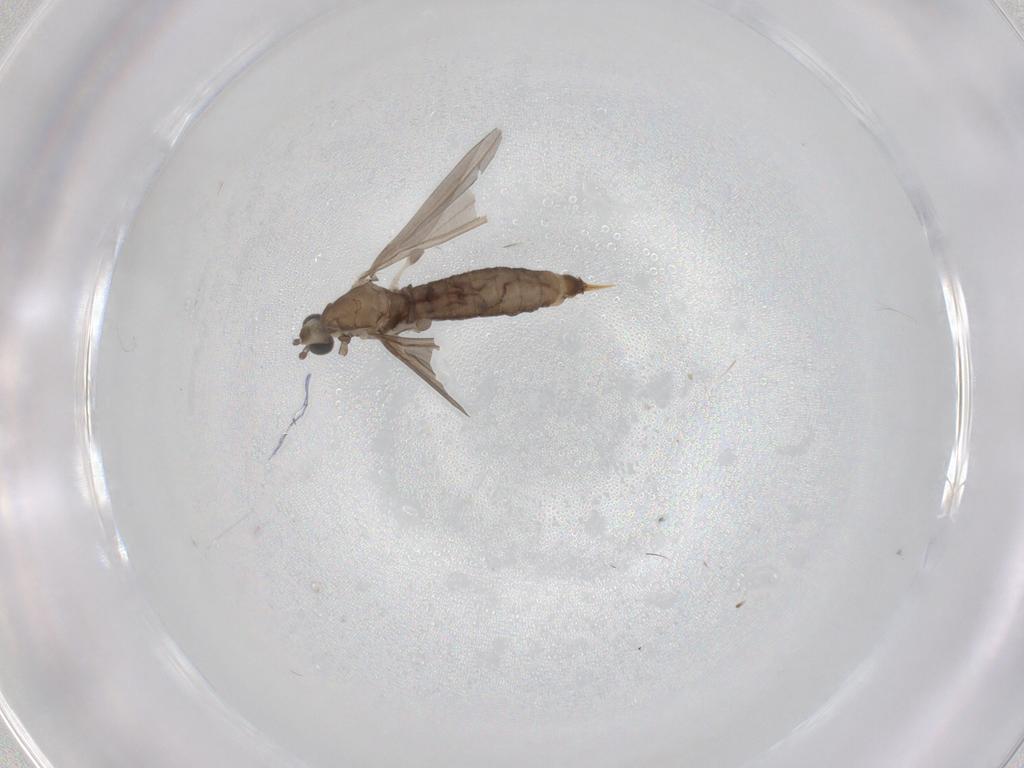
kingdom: Animalia
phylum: Arthropoda
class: Insecta
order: Diptera
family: Limoniidae
